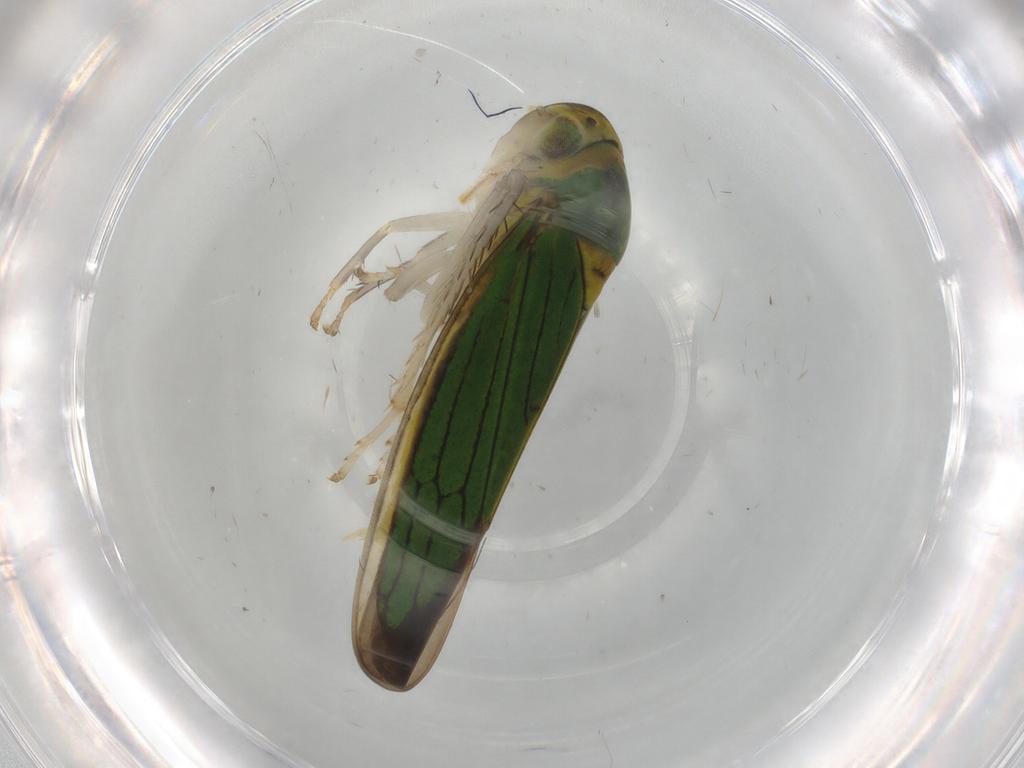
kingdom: Animalia
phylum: Arthropoda
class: Insecta
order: Hemiptera
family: Cicadellidae
